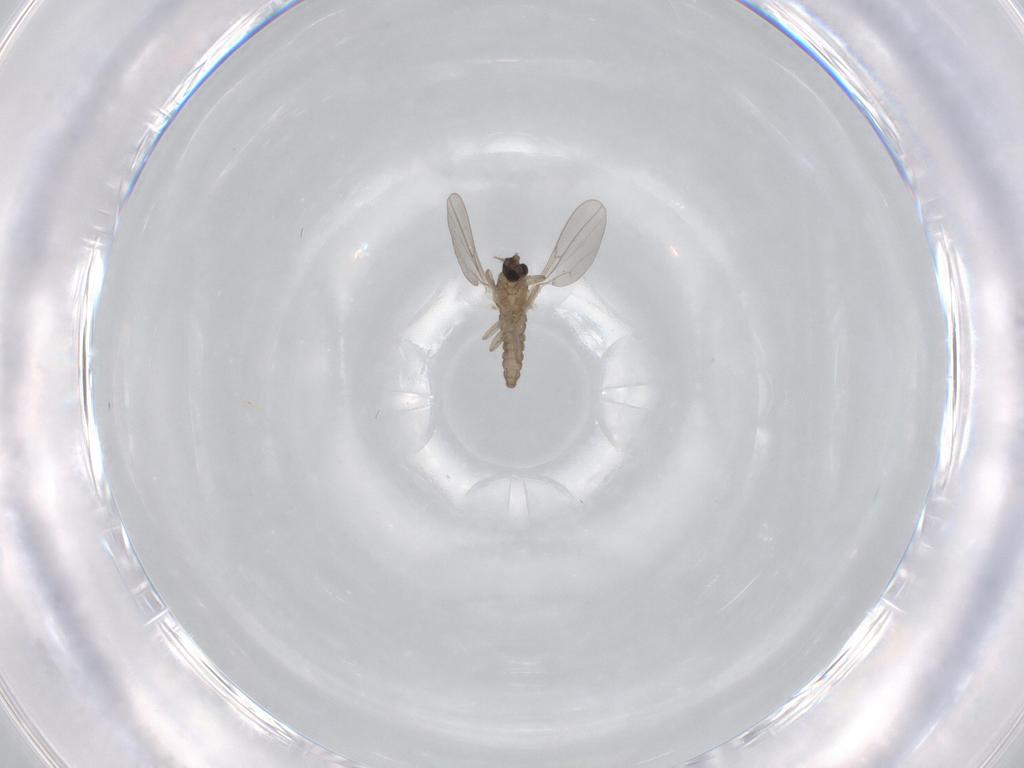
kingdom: Animalia
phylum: Arthropoda
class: Insecta
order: Diptera
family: Cecidomyiidae
